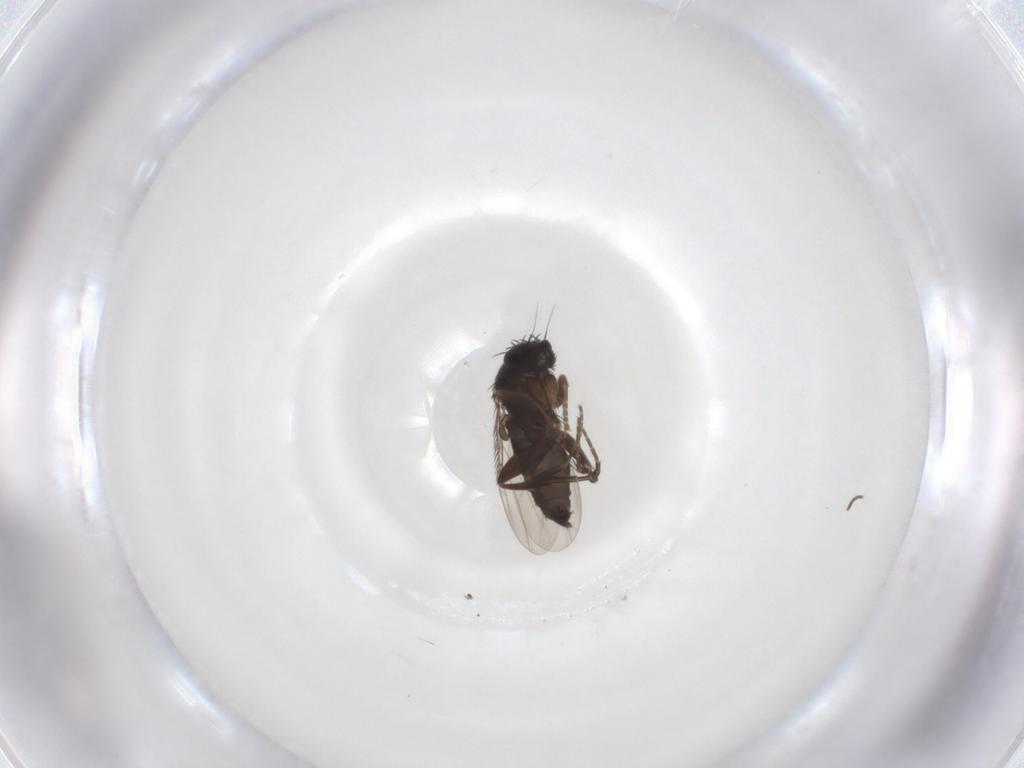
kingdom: Animalia
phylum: Arthropoda
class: Insecta
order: Diptera
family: Phoridae
